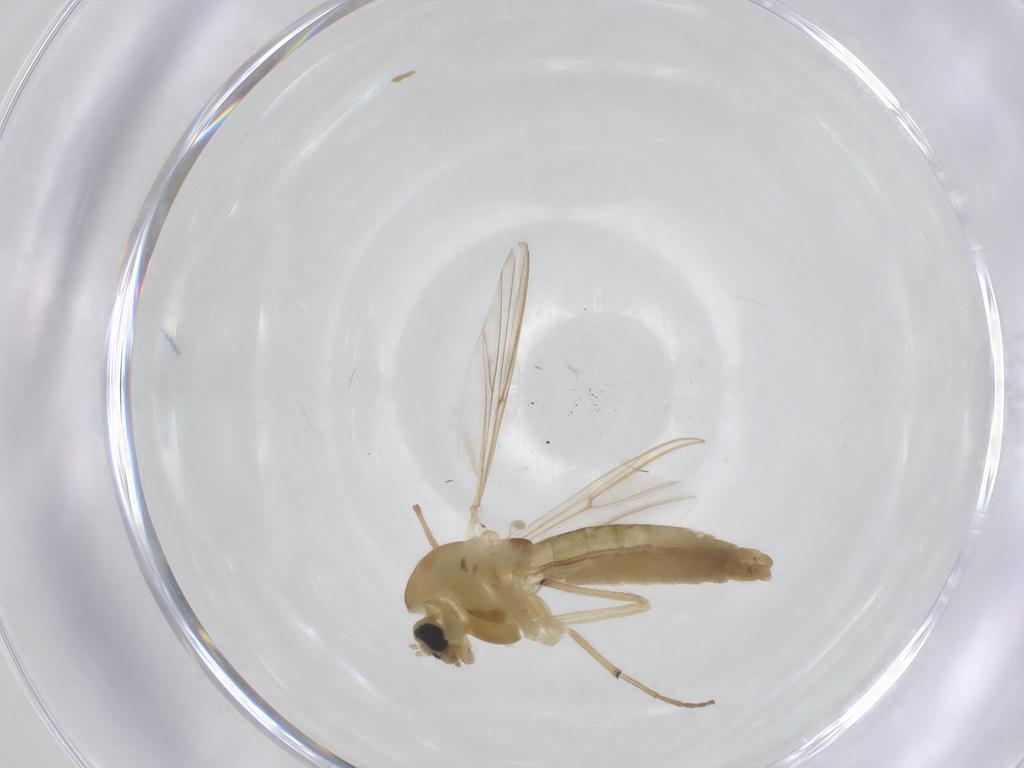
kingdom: Animalia
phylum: Arthropoda
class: Insecta
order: Diptera
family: Chironomidae
